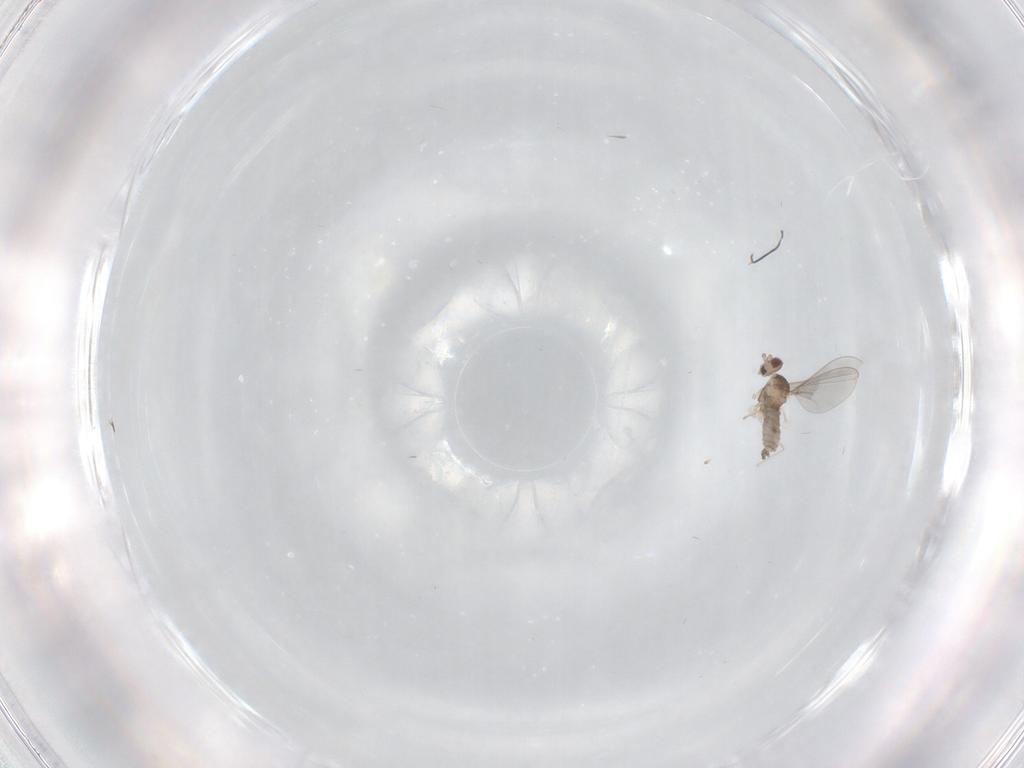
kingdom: Animalia
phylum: Arthropoda
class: Insecta
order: Diptera
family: Cecidomyiidae
